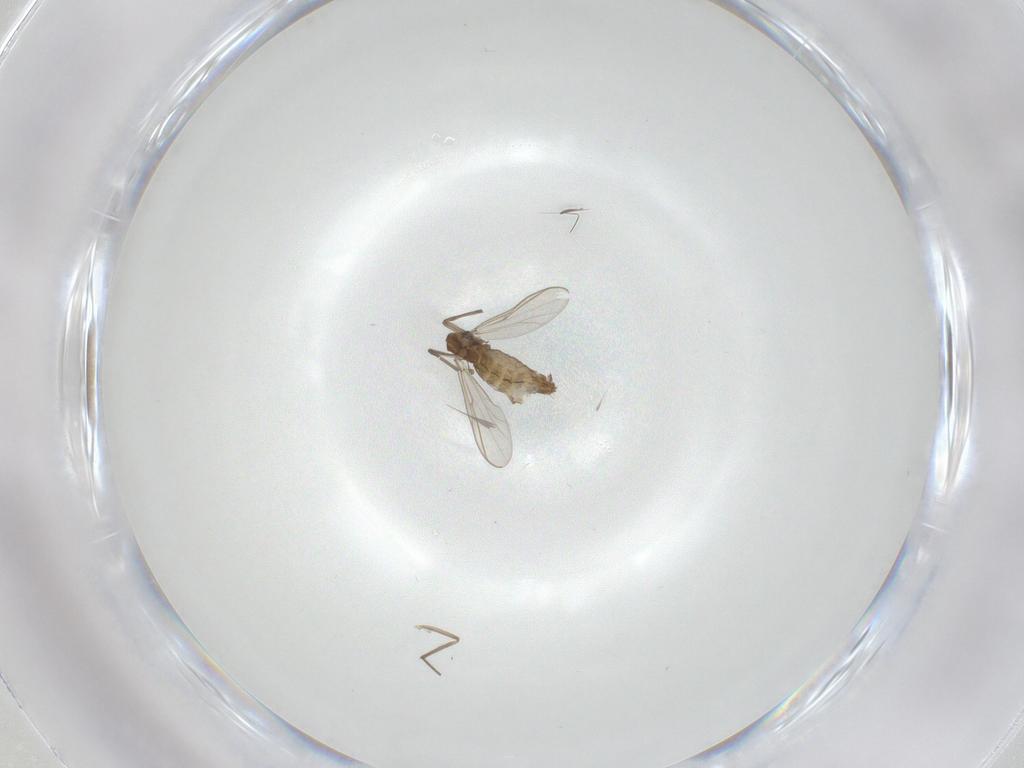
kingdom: Animalia
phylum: Arthropoda
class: Insecta
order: Diptera
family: Chironomidae
